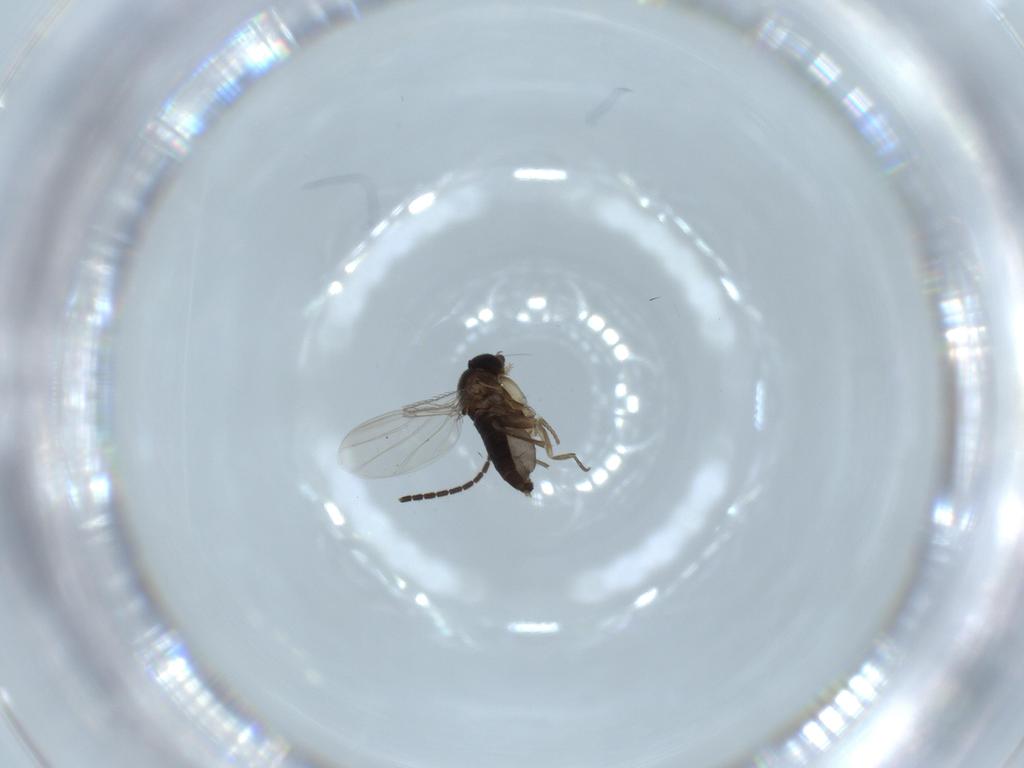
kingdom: Animalia
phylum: Arthropoda
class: Insecta
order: Diptera
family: Phoridae
